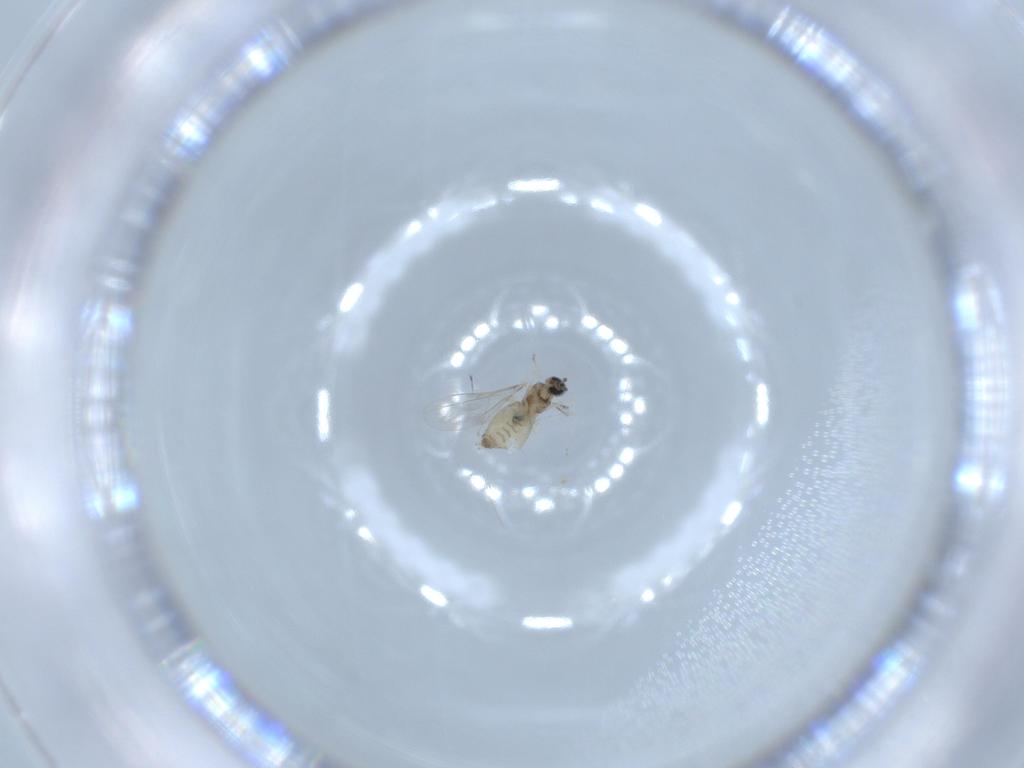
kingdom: Animalia
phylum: Arthropoda
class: Insecta
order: Diptera
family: Cecidomyiidae
